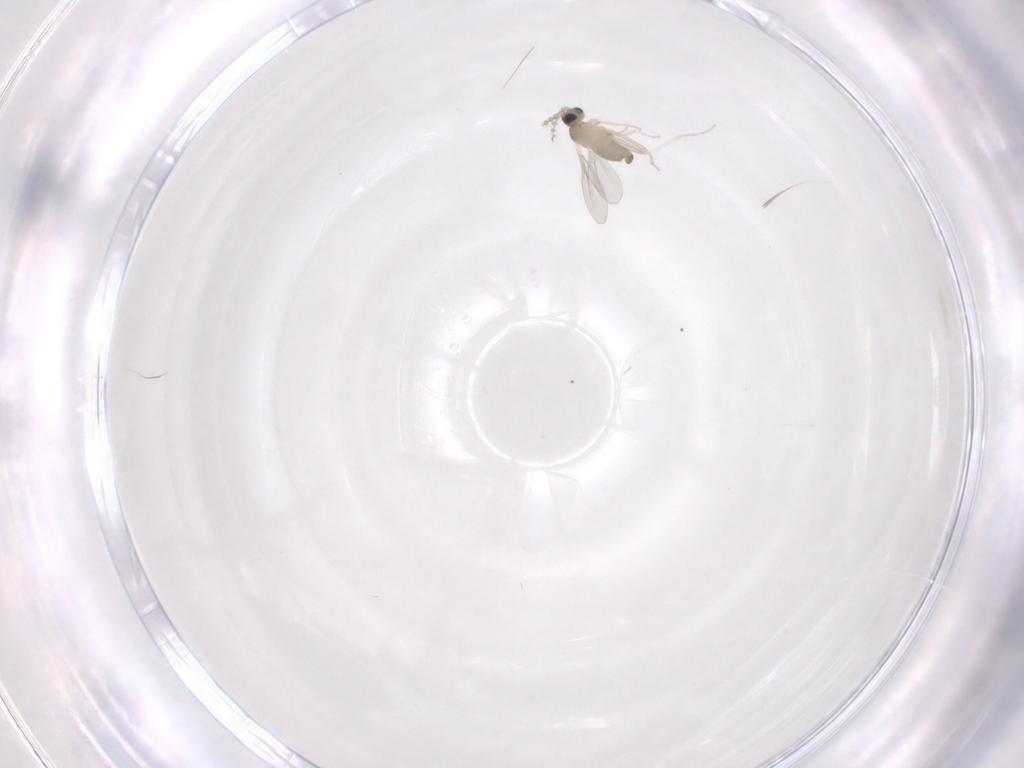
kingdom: Animalia
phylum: Arthropoda
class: Insecta
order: Diptera
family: Cecidomyiidae
